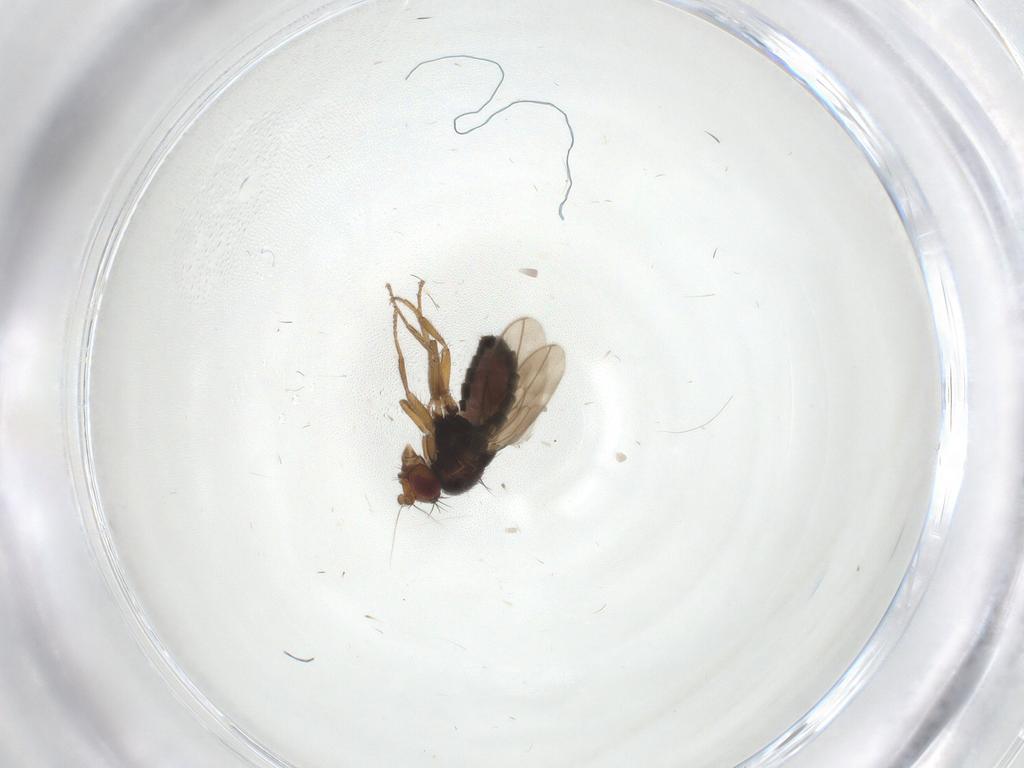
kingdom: Animalia
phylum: Arthropoda
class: Insecta
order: Diptera
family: Sphaeroceridae
